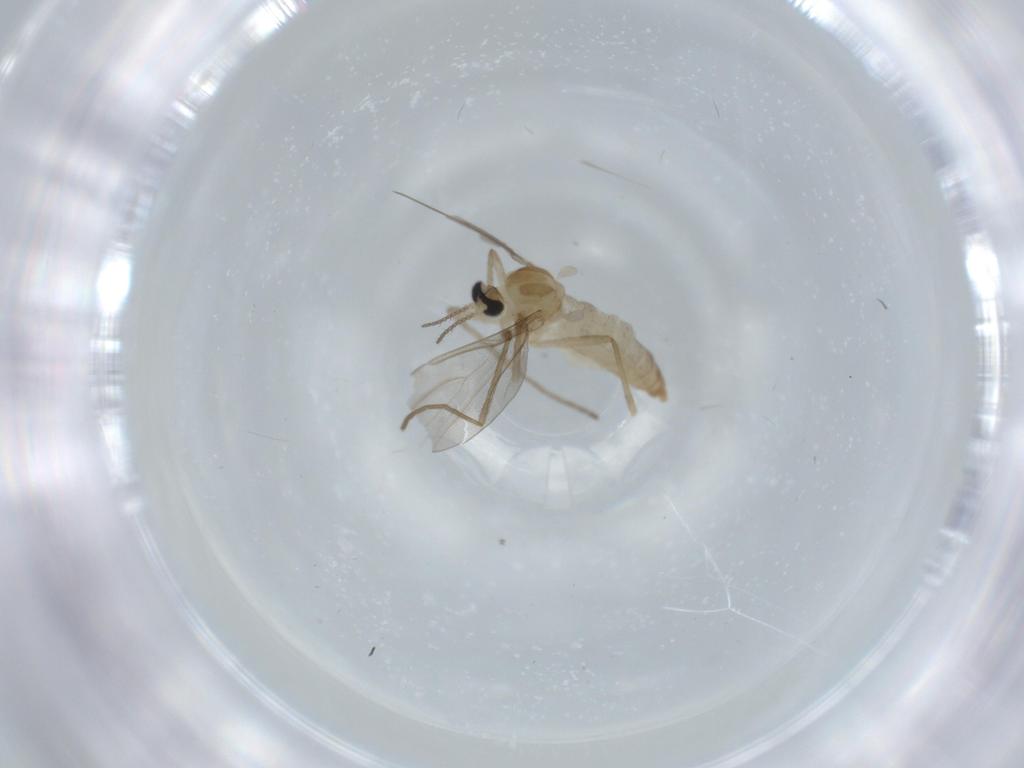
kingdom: Animalia
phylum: Arthropoda
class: Insecta
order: Diptera
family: Cecidomyiidae
